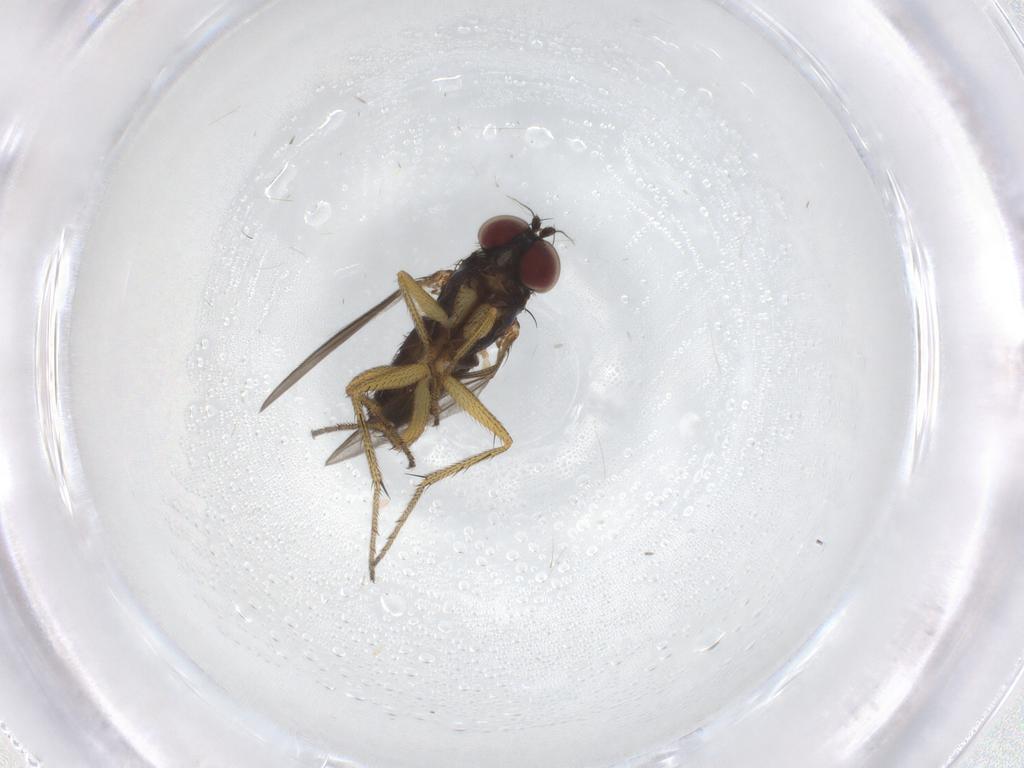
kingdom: Animalia
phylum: Arthropoda
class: Insecta
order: Diptera
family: Dolichopodidae
